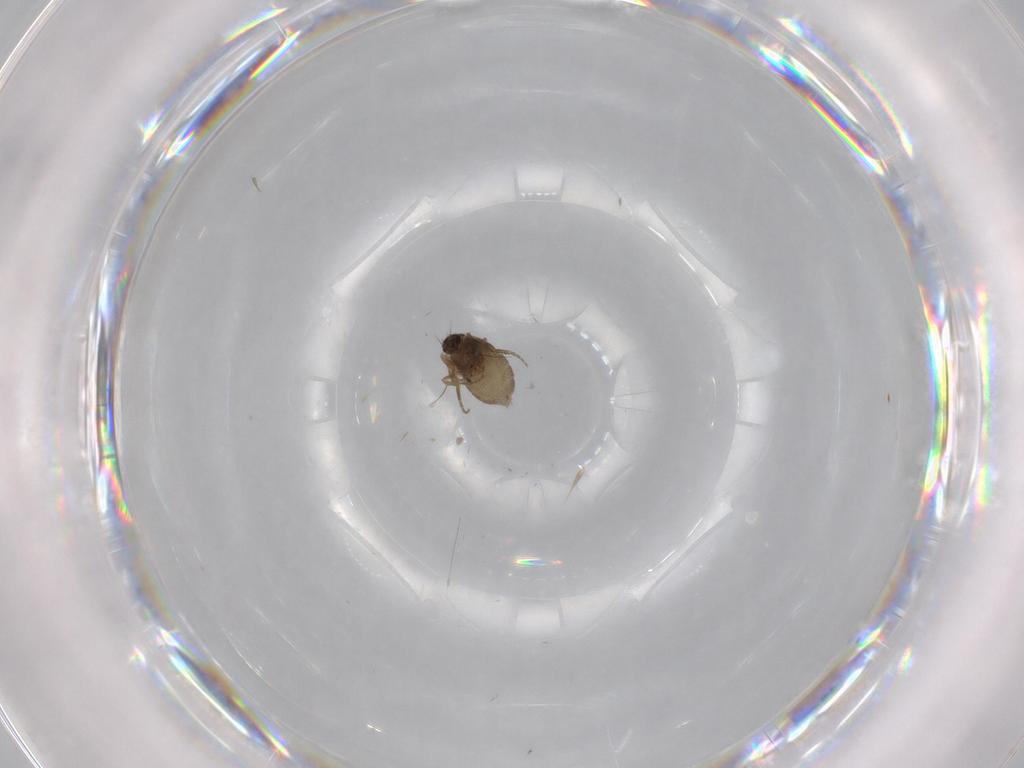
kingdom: Animalia
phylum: Arthropoda
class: Insecta
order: Diptera
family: Phoridae
